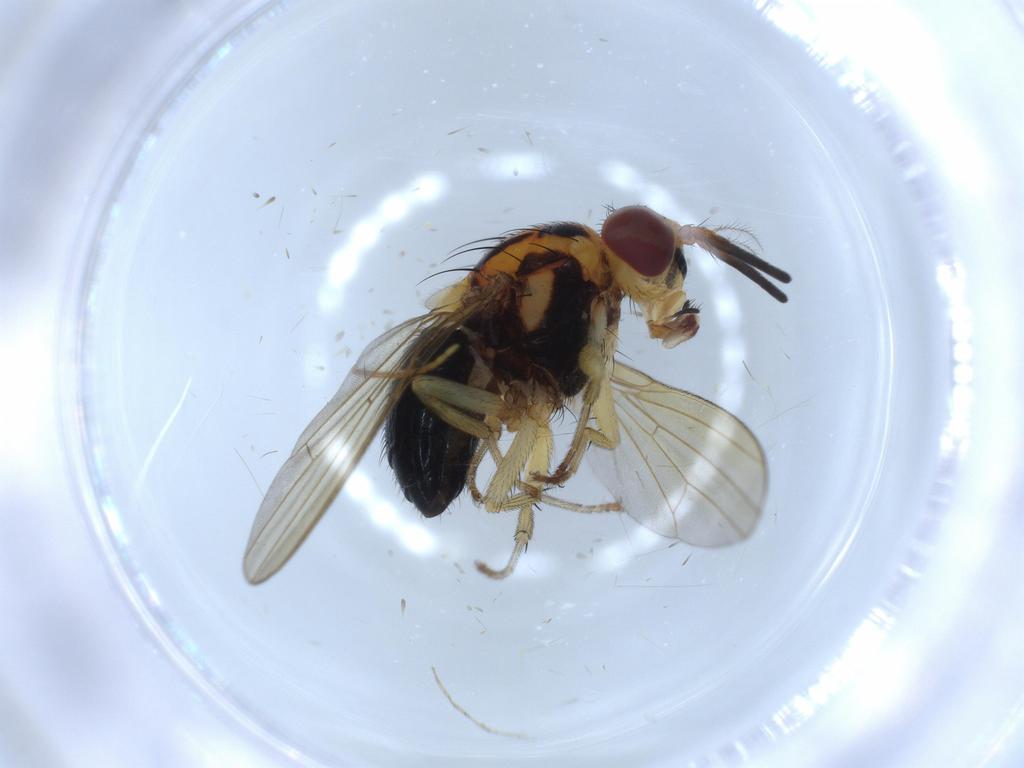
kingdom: Animalia
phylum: Arthropoda
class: Insecta
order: Diptera
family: Lauxaniidae
